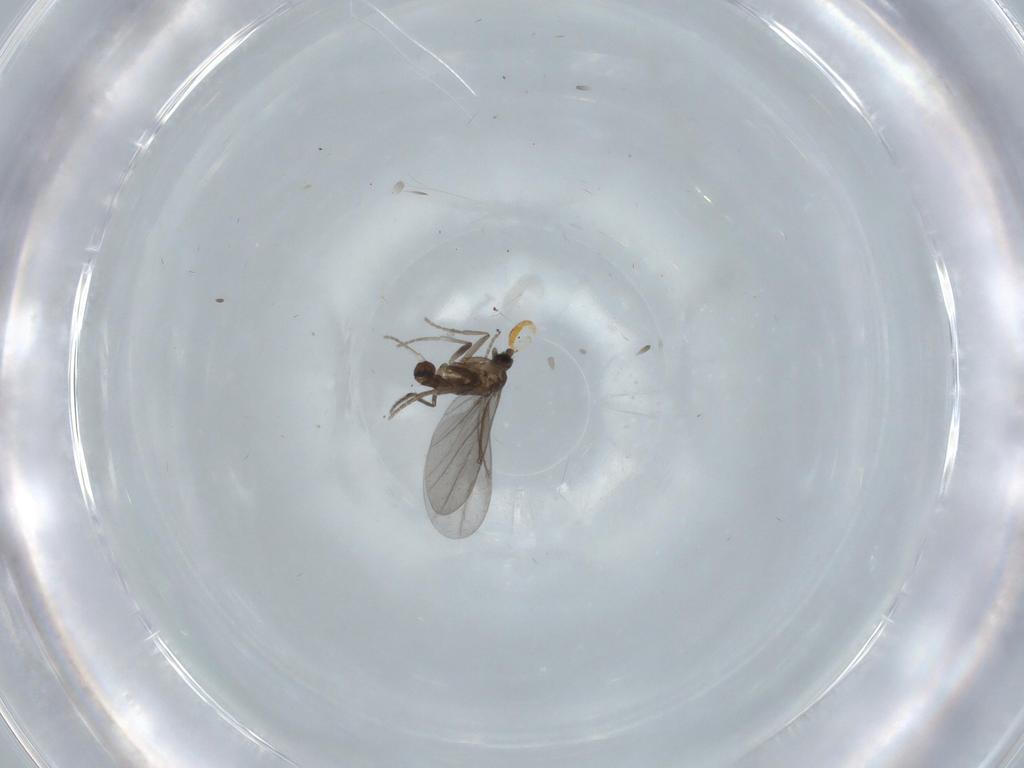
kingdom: Animalia
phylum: Arthropoda
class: Insecta
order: Diptera
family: Phoridae
